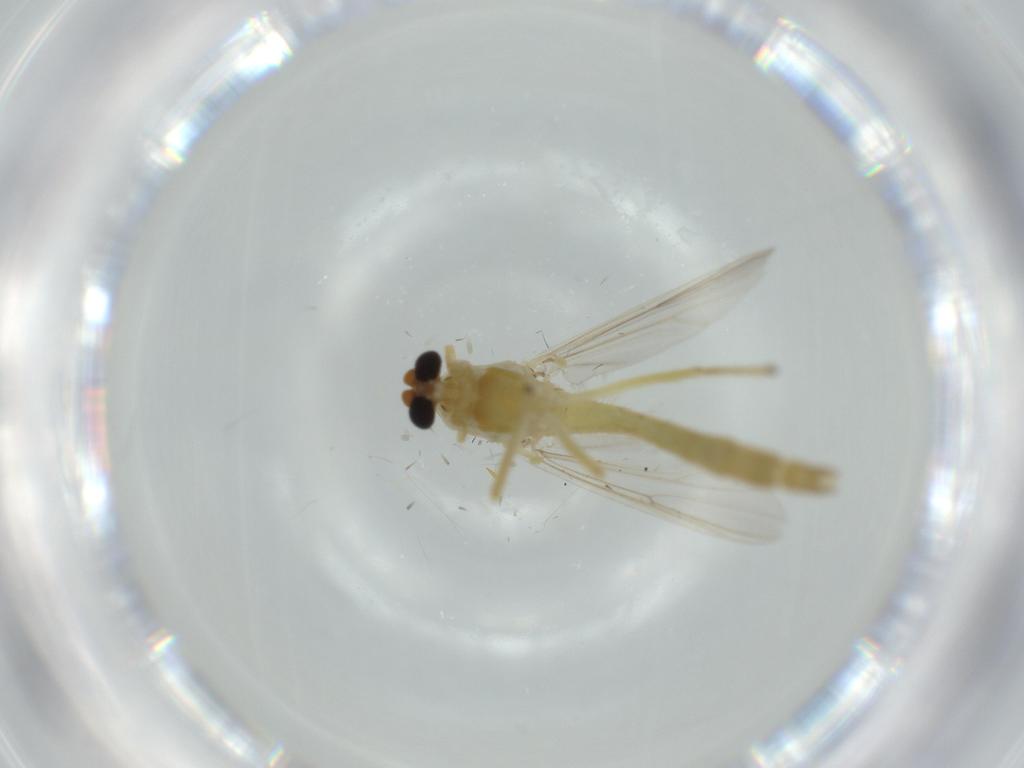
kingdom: Animalia
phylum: Arthropoda
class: Insecta
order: Diptera
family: Chironomidae
